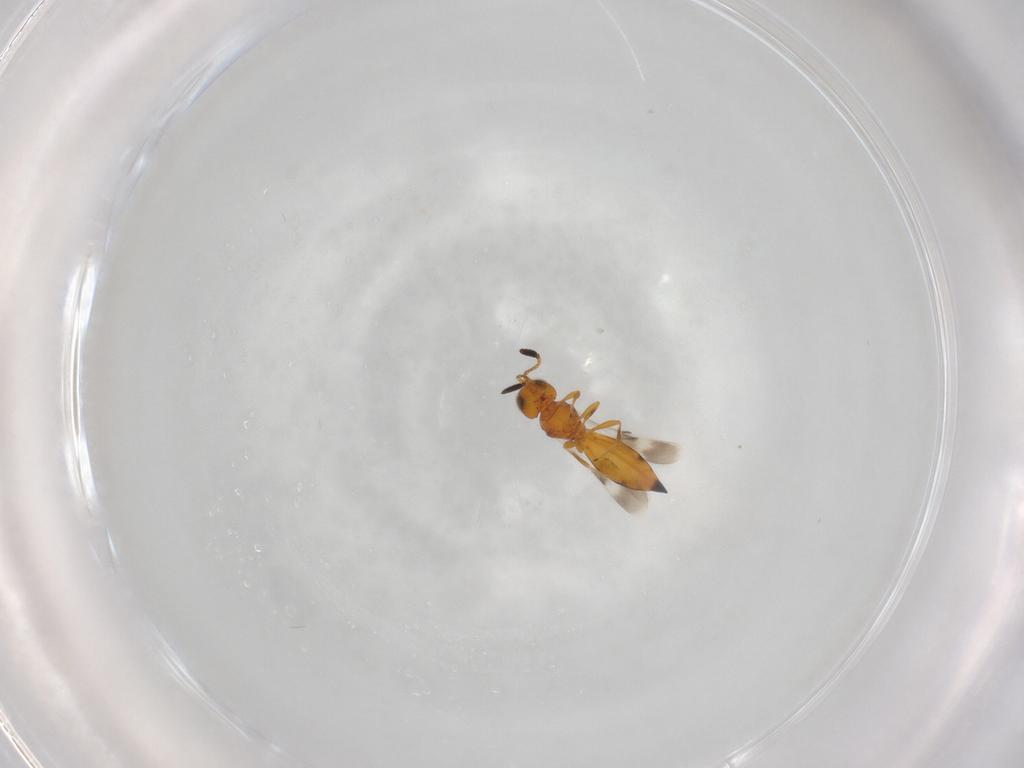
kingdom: Animalia
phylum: Arthropoda
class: Insecta
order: Hymenoptera
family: Scelionidae
